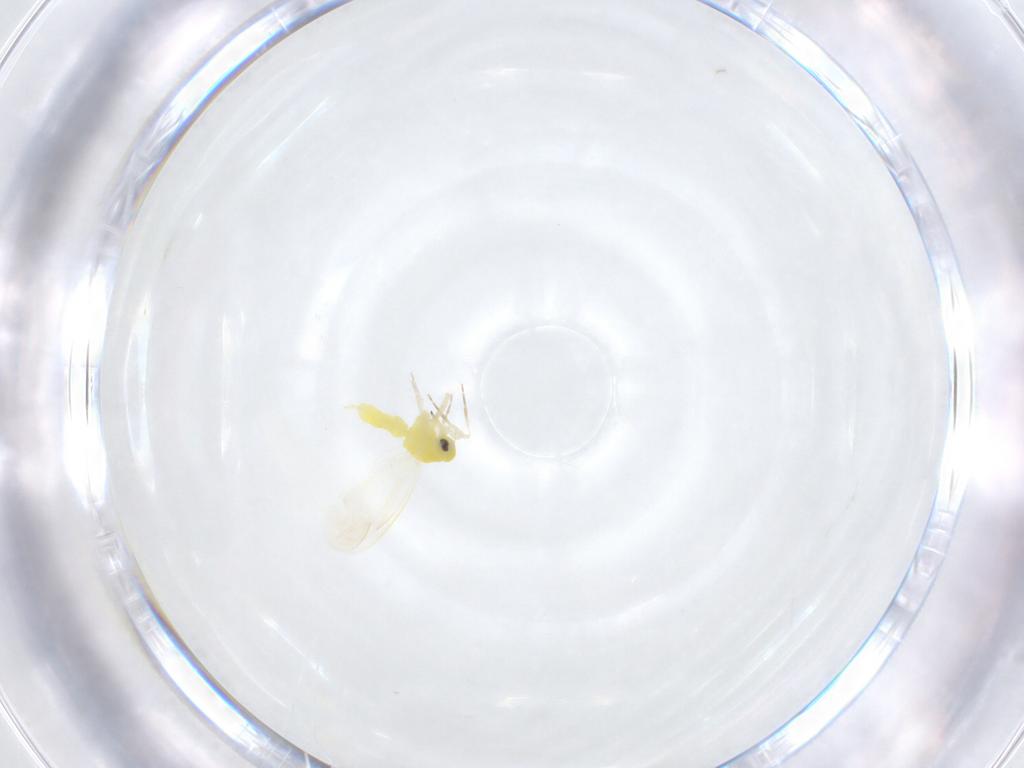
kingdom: Animalia
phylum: Arthropoda
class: Insecta
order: Hemiptera
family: Aleyrodidae
